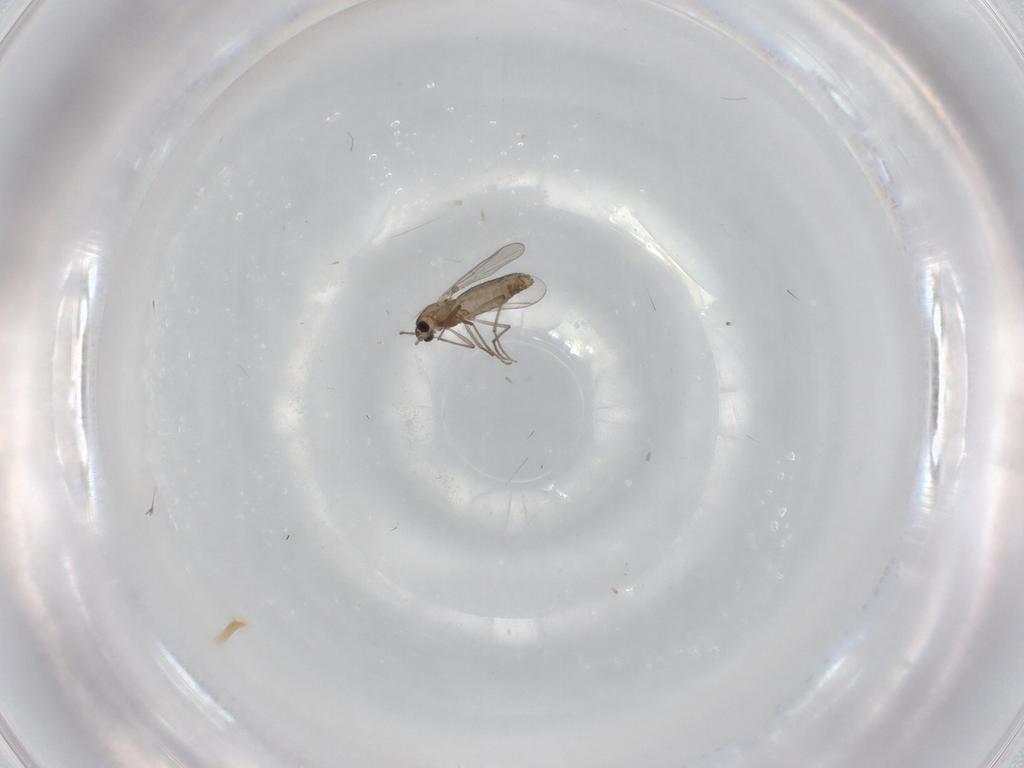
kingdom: Animalia
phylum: Arthropoda
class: Insecta
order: Diptera
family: Chironomidae
